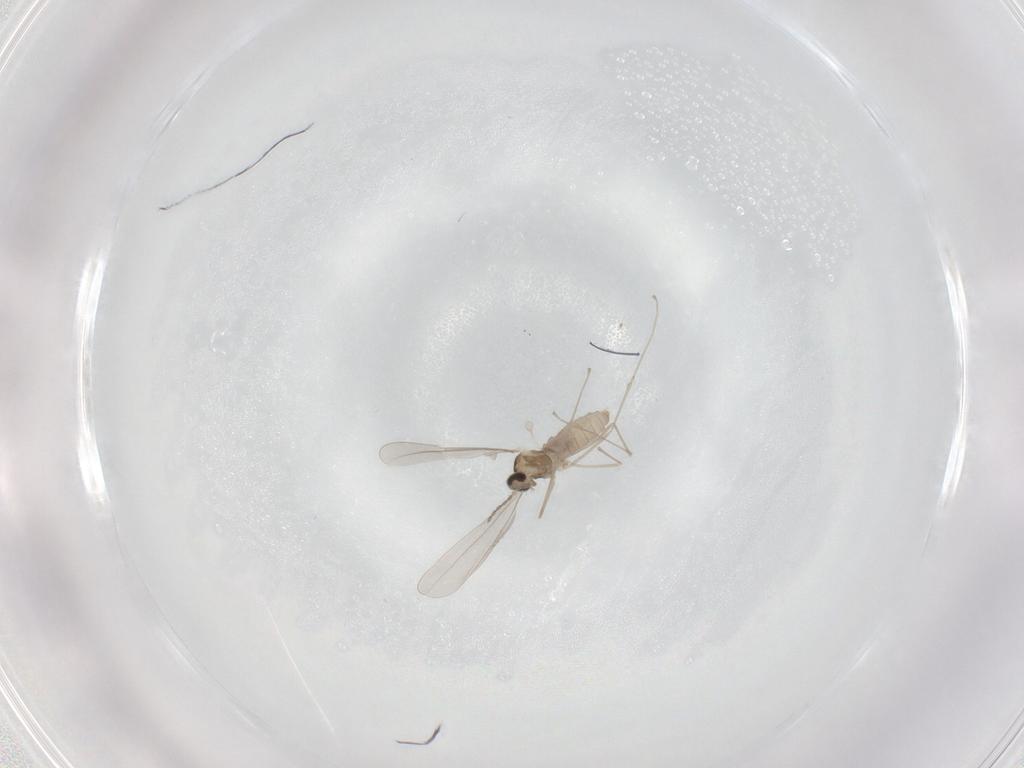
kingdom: Animalia
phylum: Arthropoda
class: Insecta
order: Diptera
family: Cecidomyiidae
